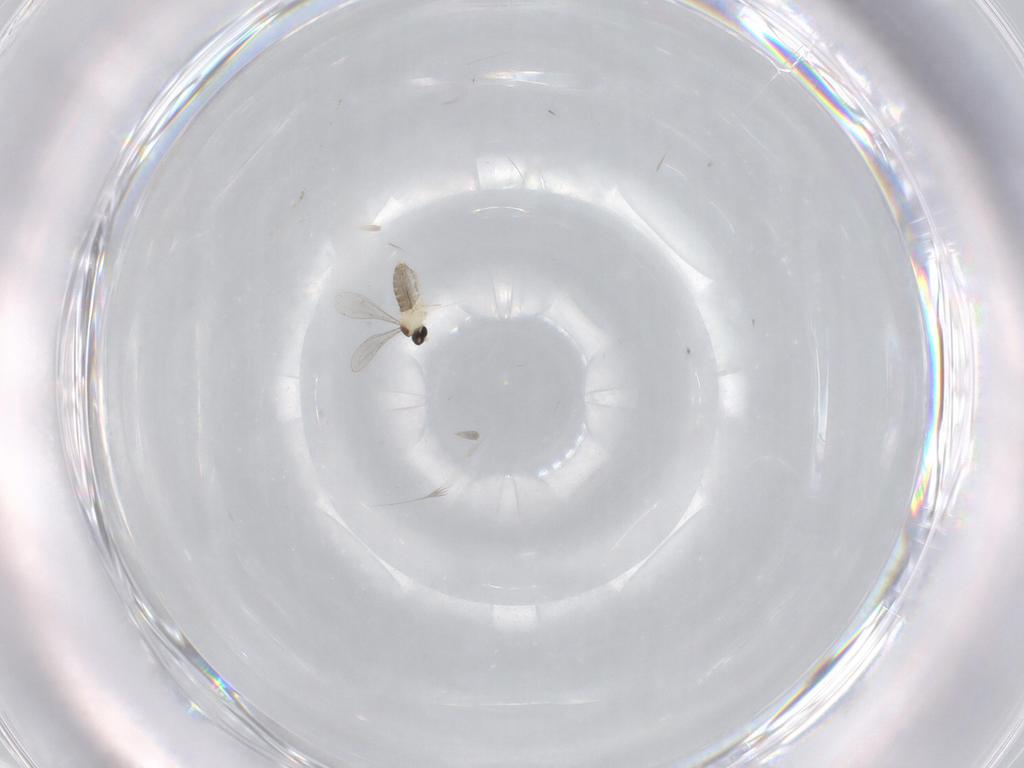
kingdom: Animalia
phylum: Arthropoda
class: Insecta
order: Diptera
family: Cecidomyiidae
